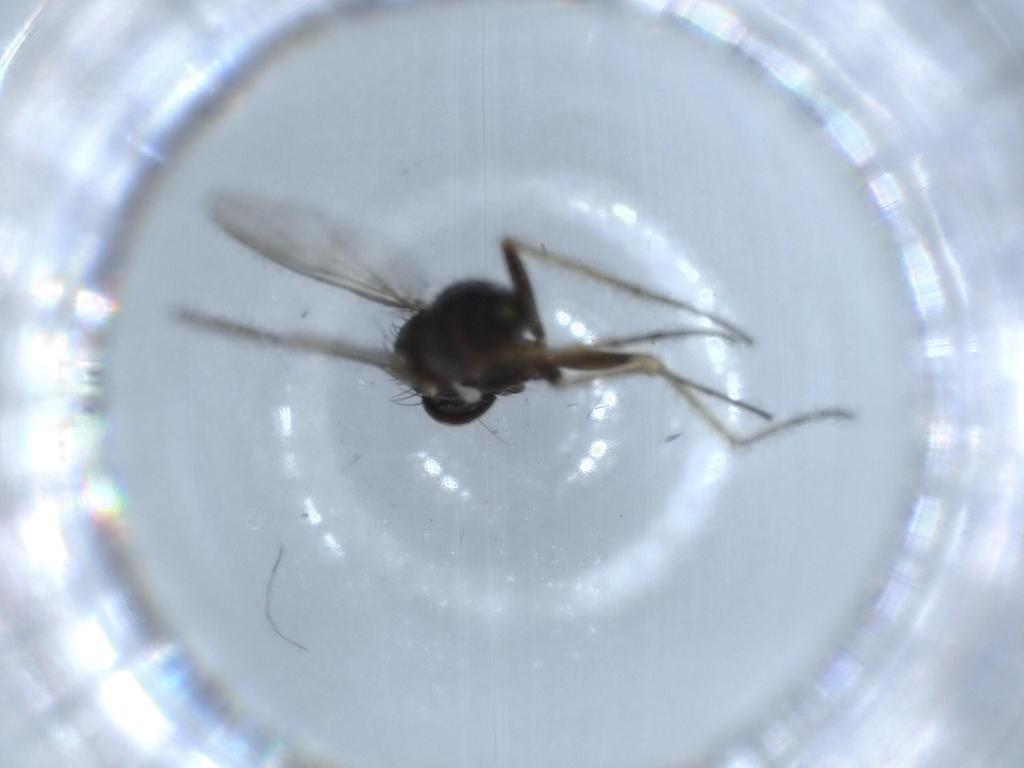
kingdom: Animalia
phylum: Arthropoda
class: Insecta
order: Diptera
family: Dolichopodidae
